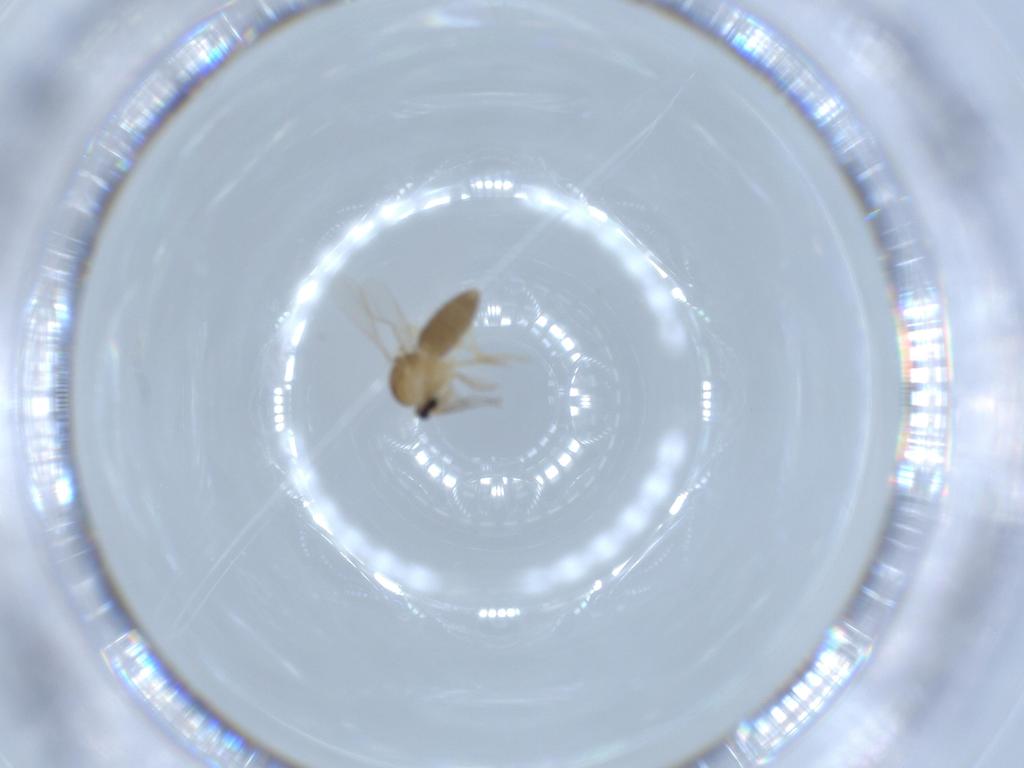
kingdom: Animalia
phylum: Arthropoda
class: Insecta
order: Diptera
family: Ceratopogonidae
